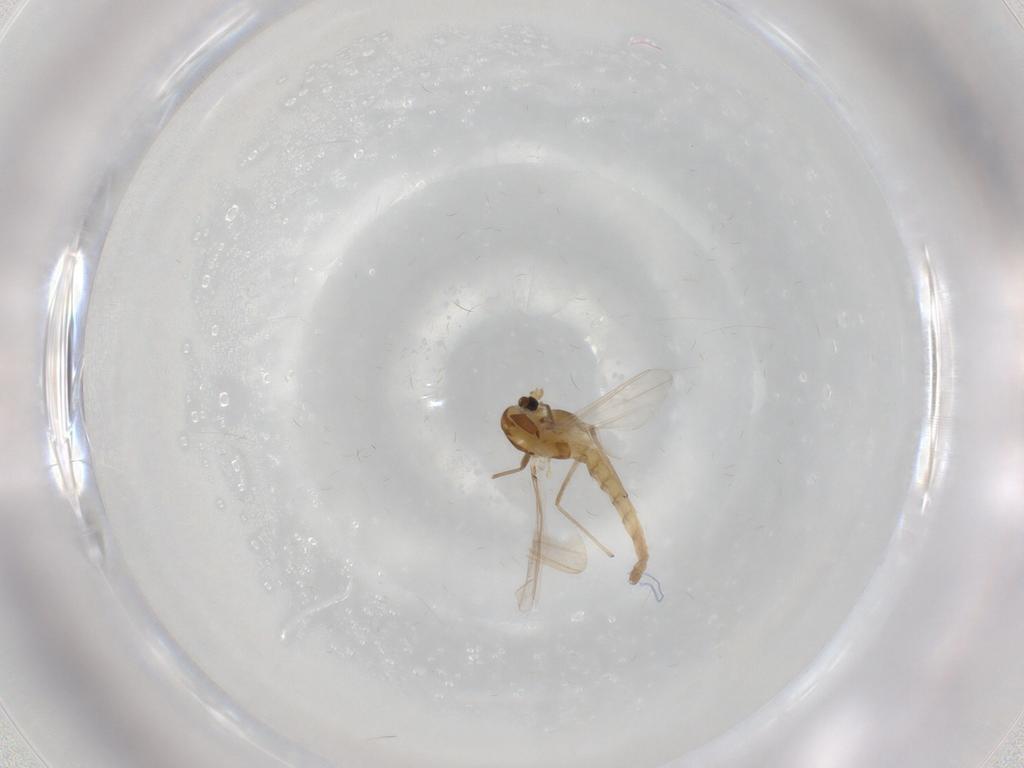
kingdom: Animalia
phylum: Arthropoda
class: Insecta
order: Diptera
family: Chironomidae
